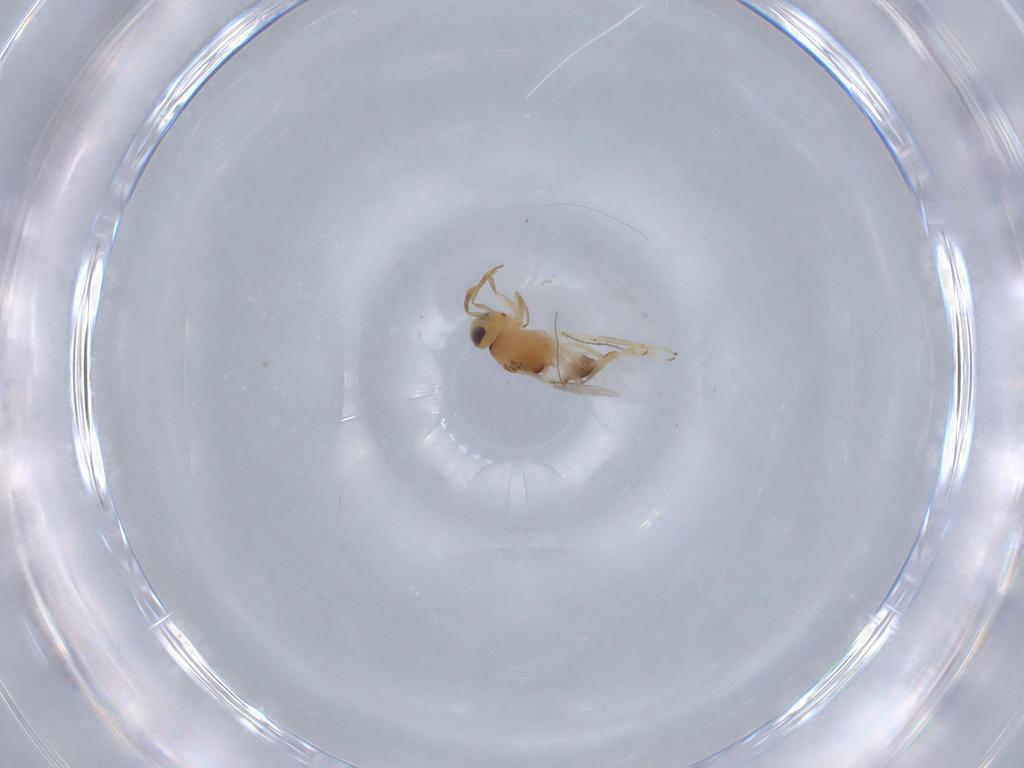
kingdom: Animalia
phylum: Arthropoda
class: Insecta
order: Hymenoptera
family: Encyrtidae
